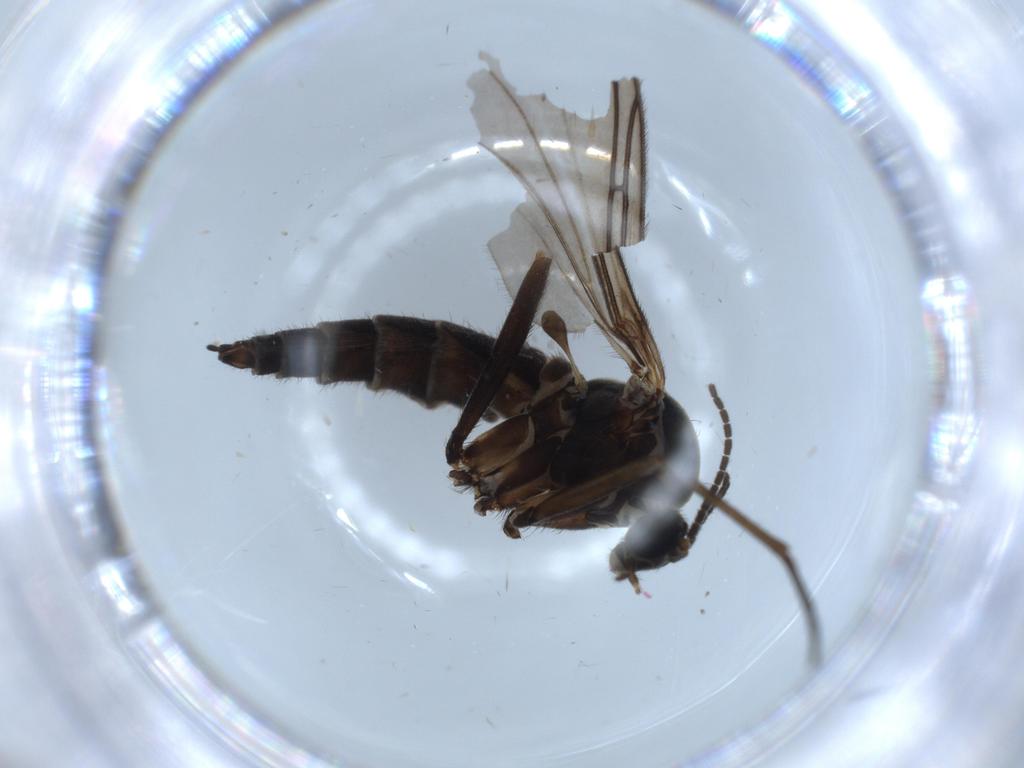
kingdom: Animalia
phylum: Arthropoda
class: Insecta
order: Diptera
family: Sciaridae
